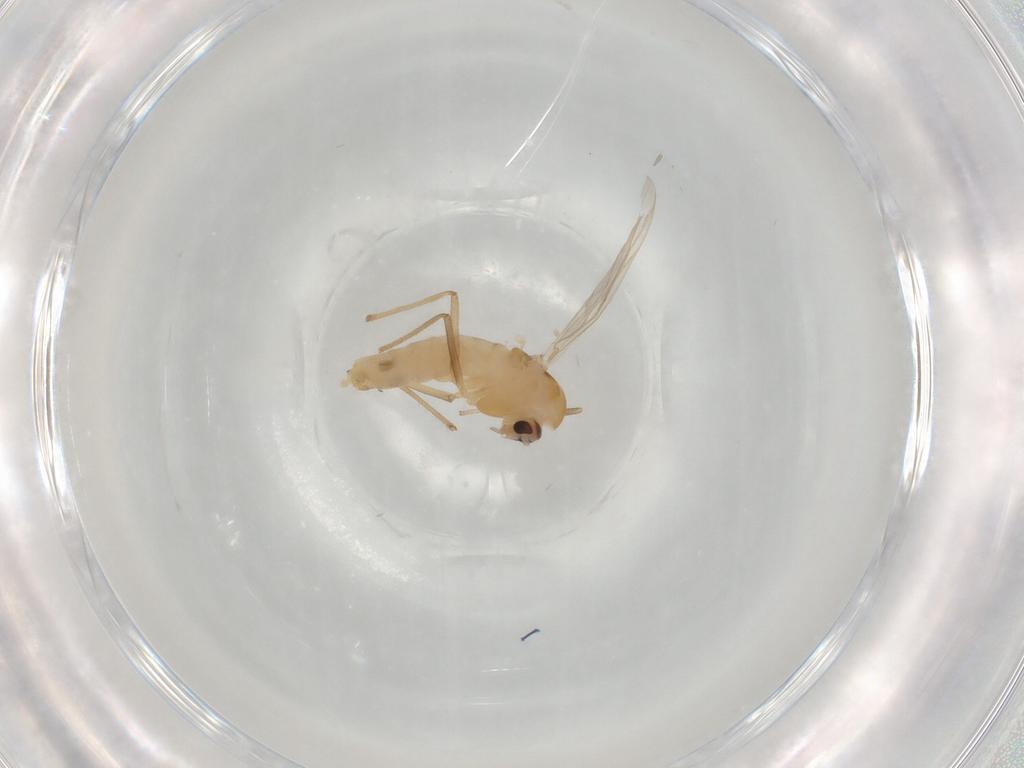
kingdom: Animalia
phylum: Arthropoda
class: Insecta
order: Diptera
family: Chironomidae
